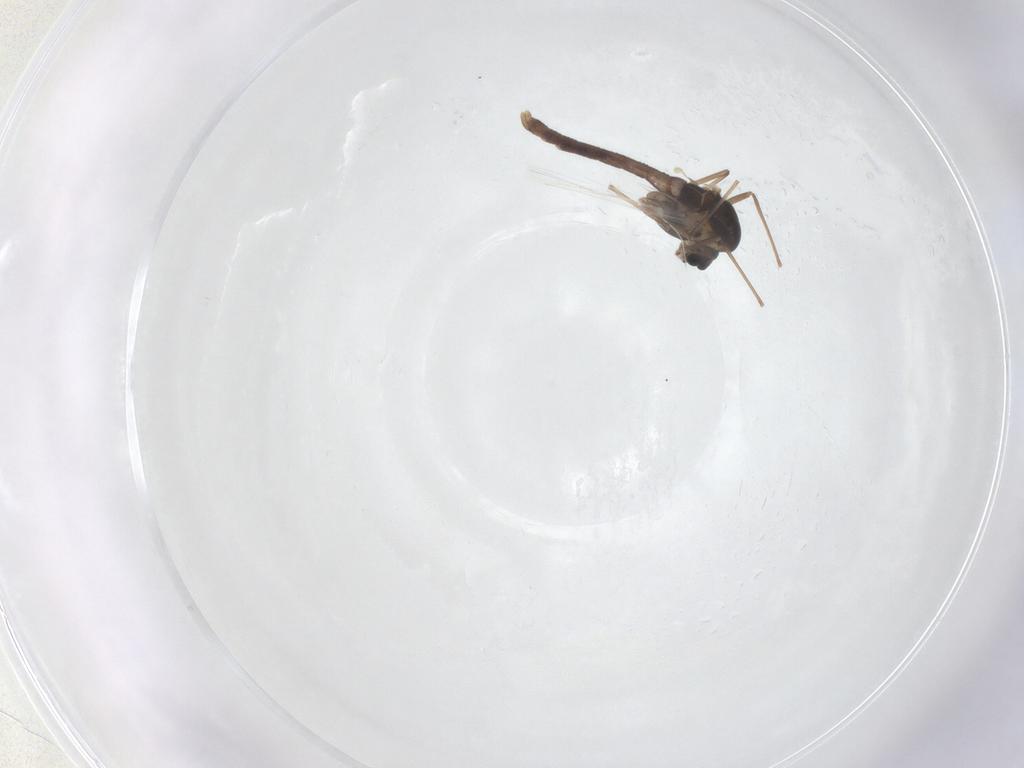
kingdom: Animalia
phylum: Arthropoda
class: Insecta
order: Diptera
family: Chironomidae
